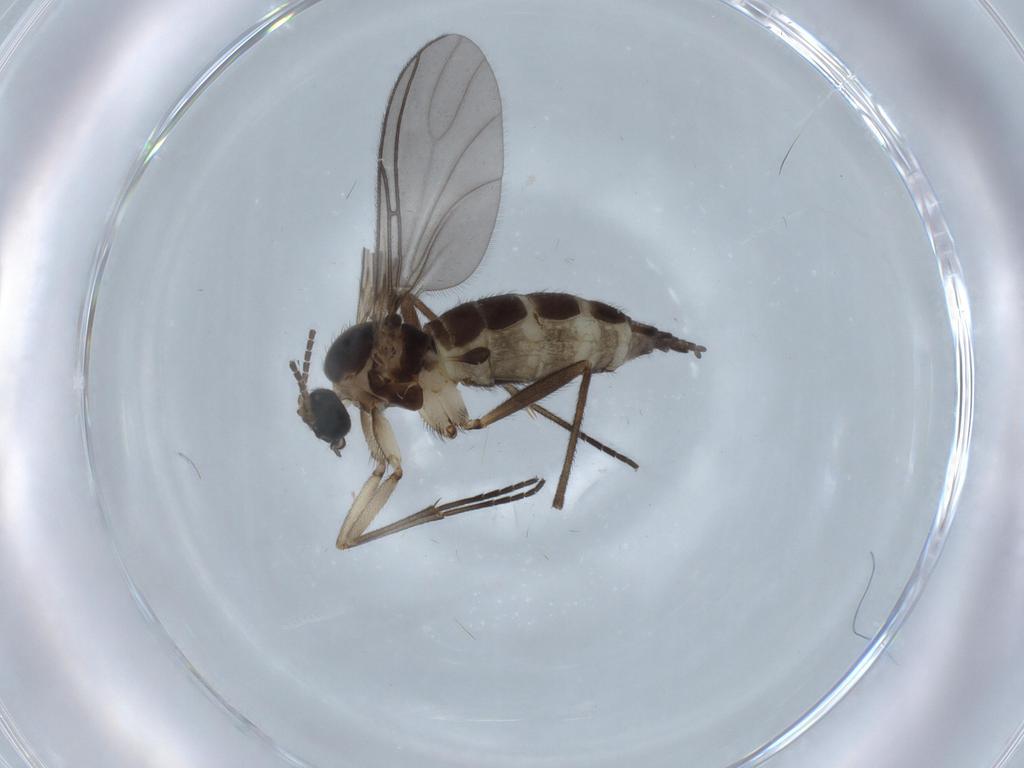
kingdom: Animalia
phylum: Arthropoda
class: Insecta
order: Diptera
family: Sciaridae
